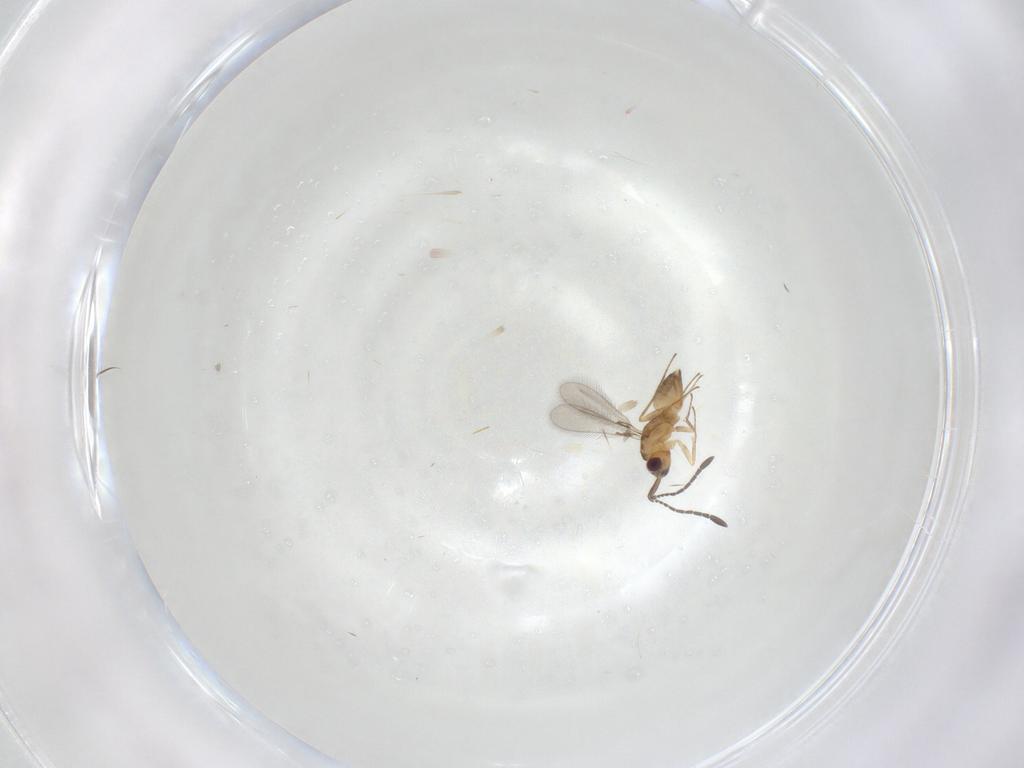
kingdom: Animalia
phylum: Arthropoda
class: Insecta
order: Hymenoptera
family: Mymaridae
